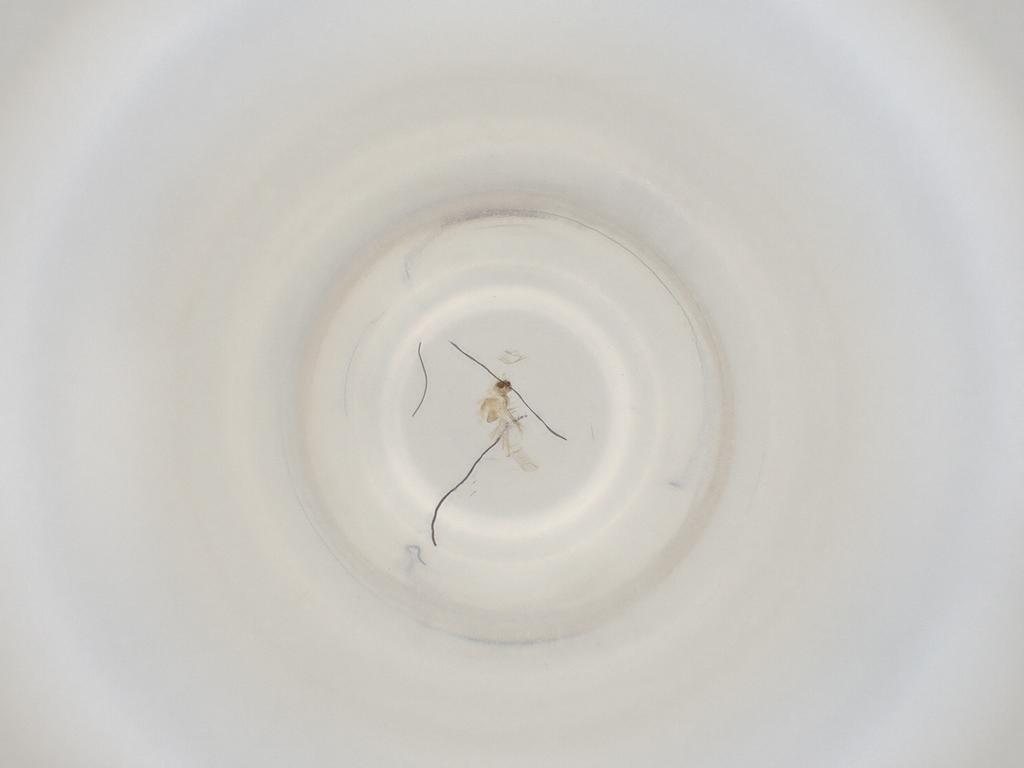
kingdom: Animalia
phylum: Arthropoda
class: Insecta
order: Diptera
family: Cecidomyiidae
